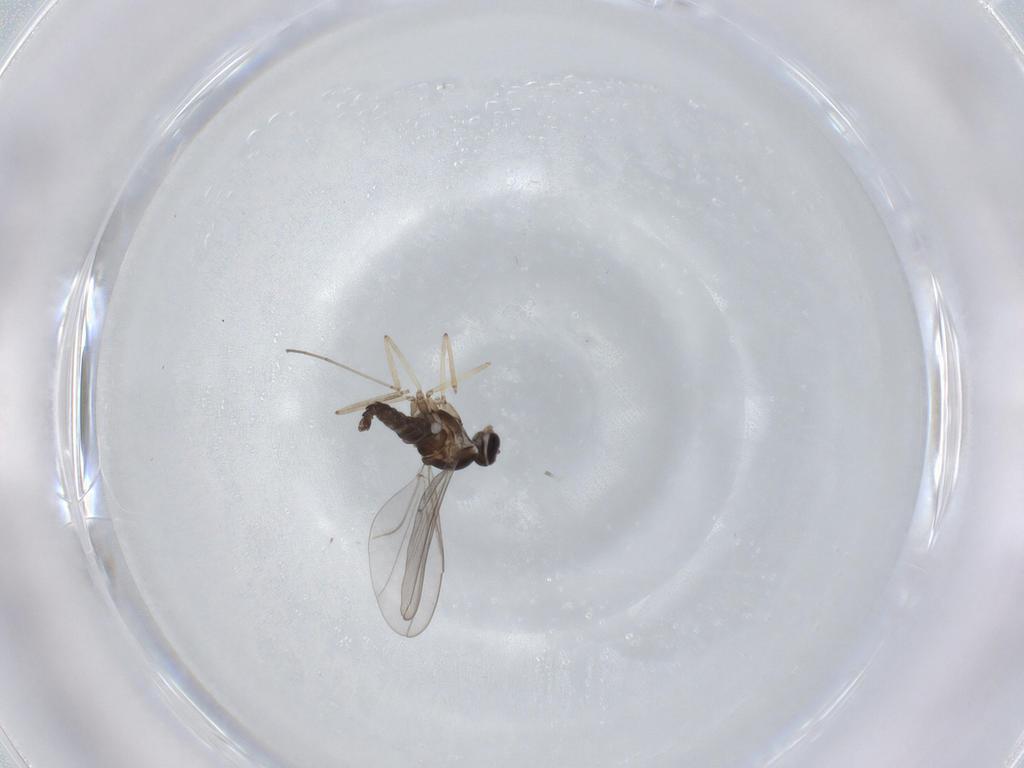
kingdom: Animalia
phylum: Arthropoda
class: Insecta
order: Diptera
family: Cecidomyiidae
